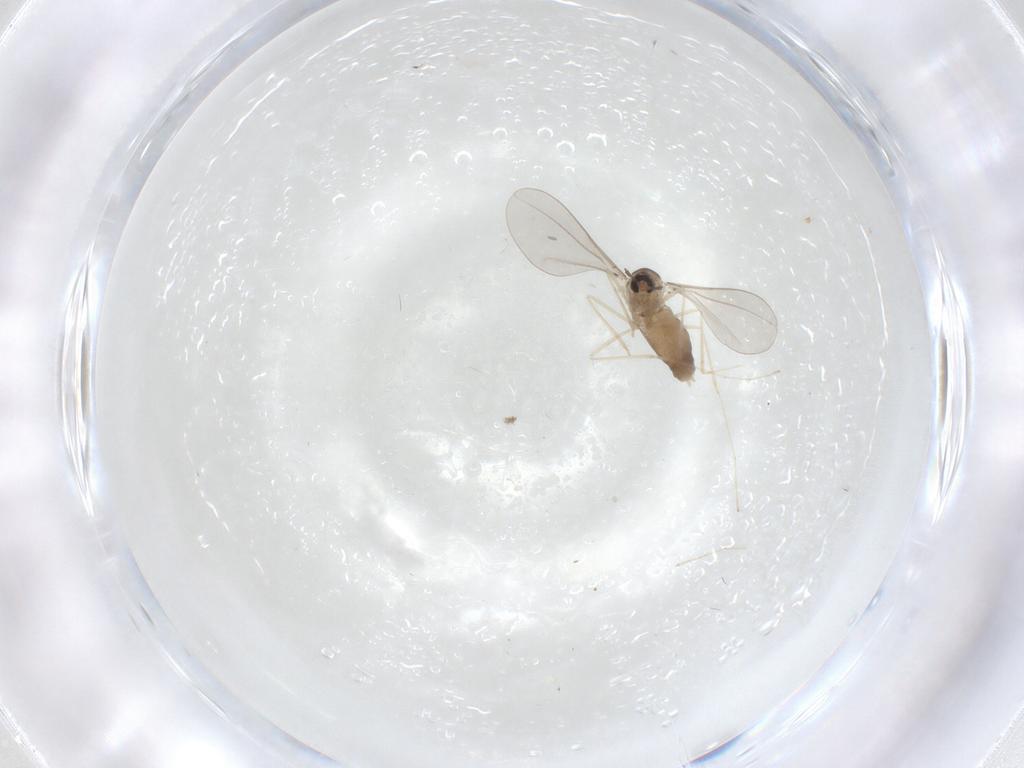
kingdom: Animalia
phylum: Arthropoda
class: Insecta
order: Diptera
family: Cecidomyiidae
